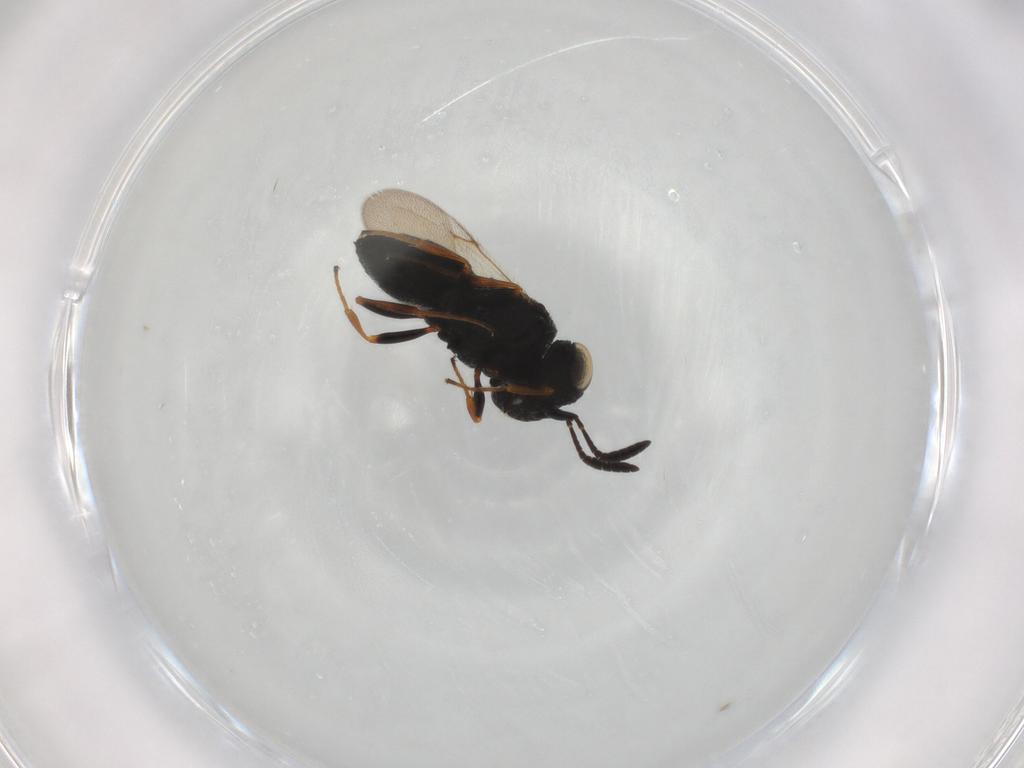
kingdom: Animalia
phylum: Arthropoda
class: Insecta
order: Hymenoptera
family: Scelionidae
